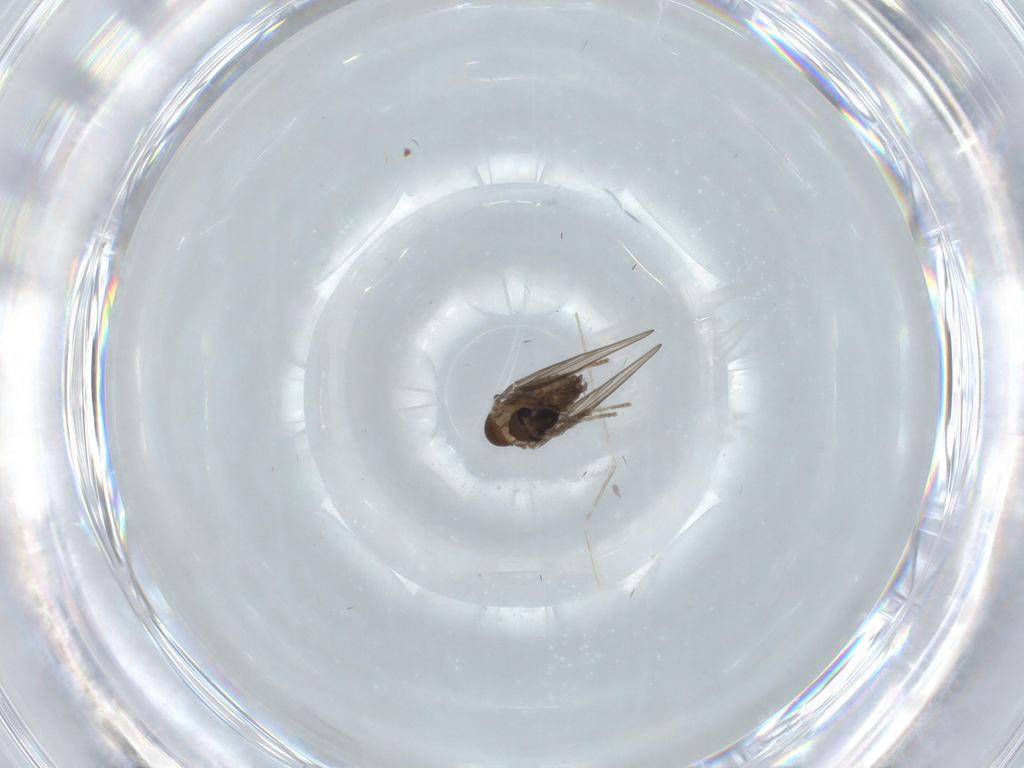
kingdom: Animalia
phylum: Arthropoda
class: Insecta
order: Diptera
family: Psychodidae
